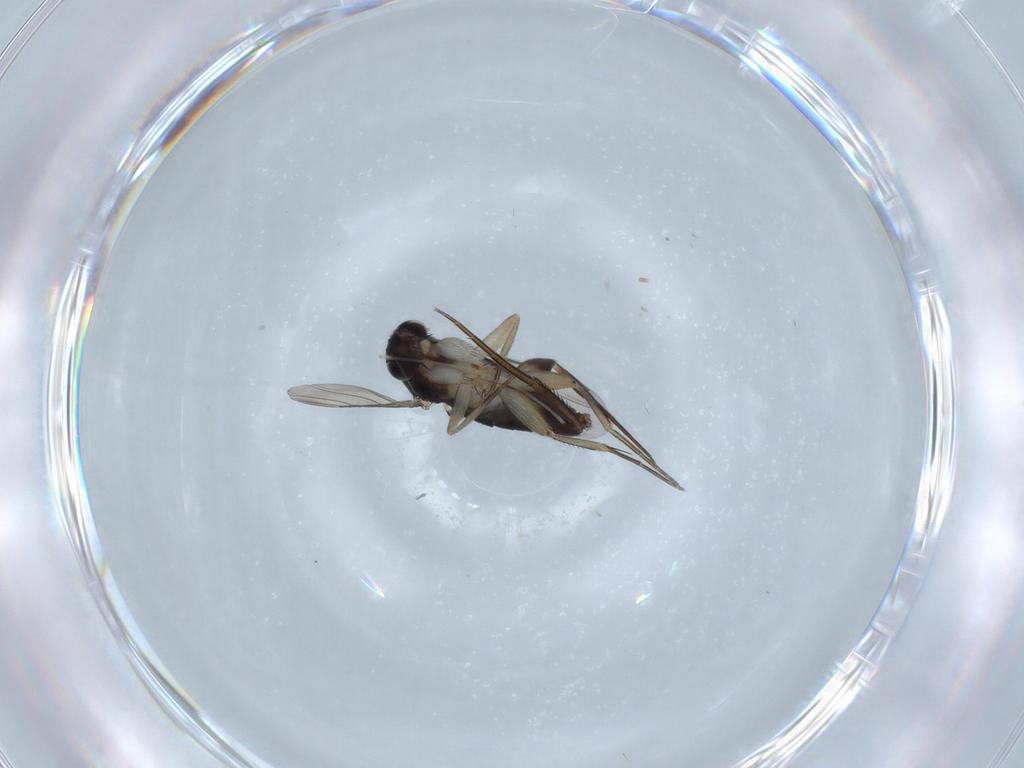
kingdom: Animalia
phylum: Arthropoda
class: Insecta
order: Diptera
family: Phoridae
